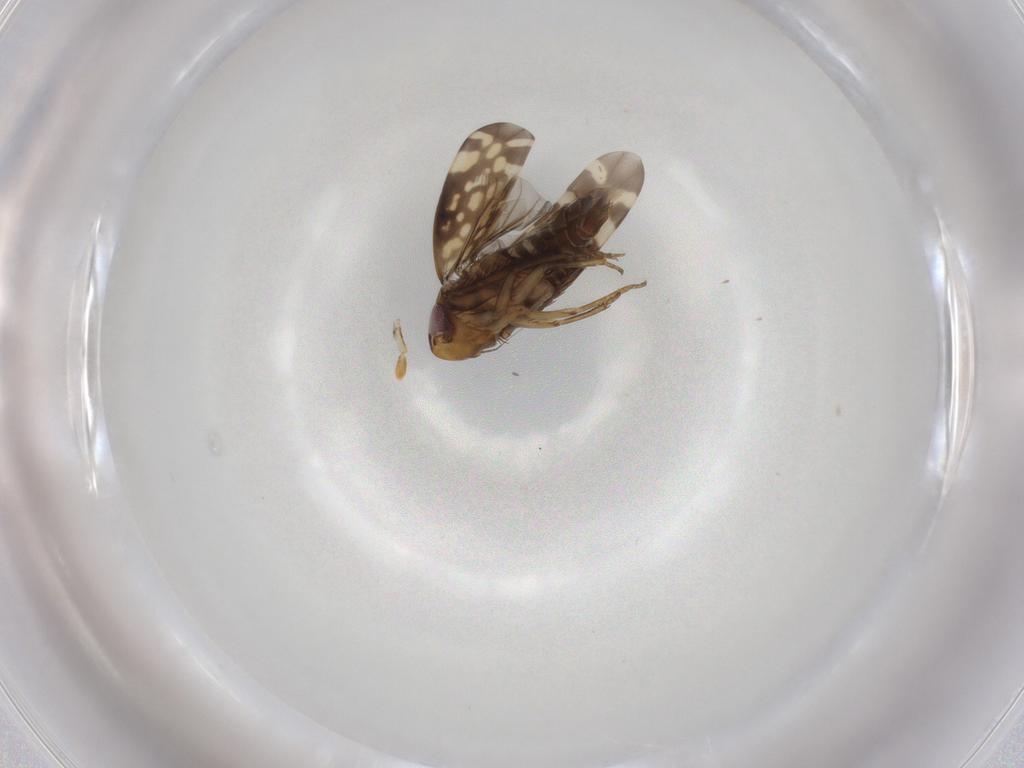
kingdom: Animalia
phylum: Arthropoda
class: Insecta
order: Hemiptera
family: Cicadellidae
